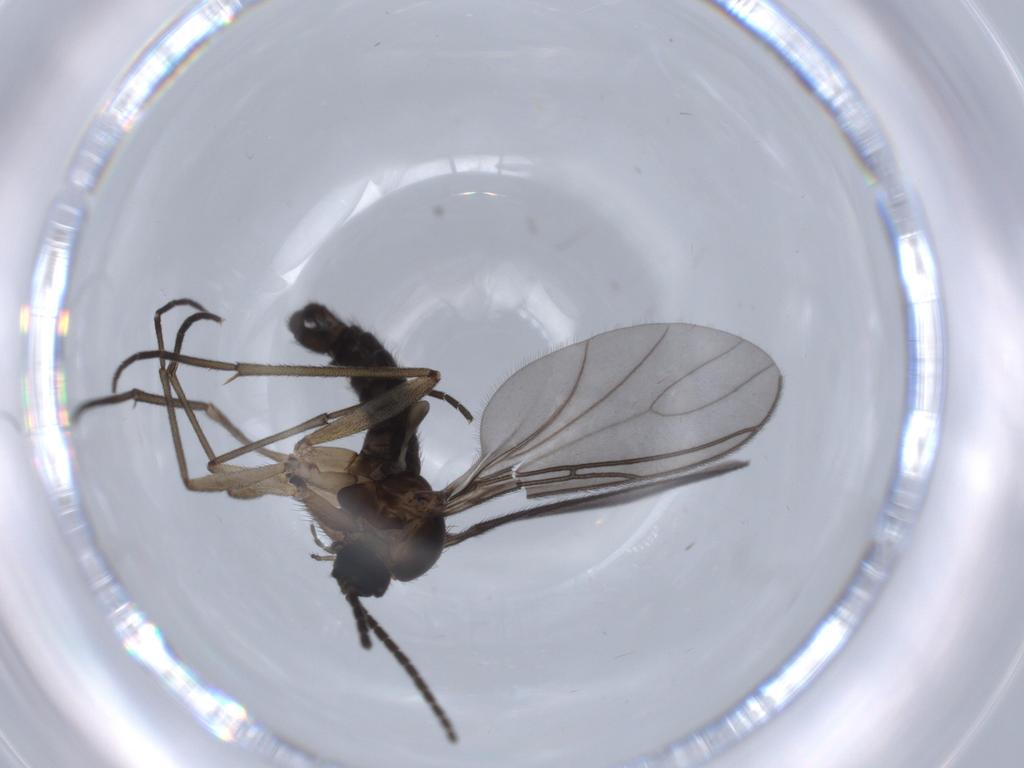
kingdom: Animalia
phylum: Arthropoda
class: Insecta
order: Diptera
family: Sciaridae
